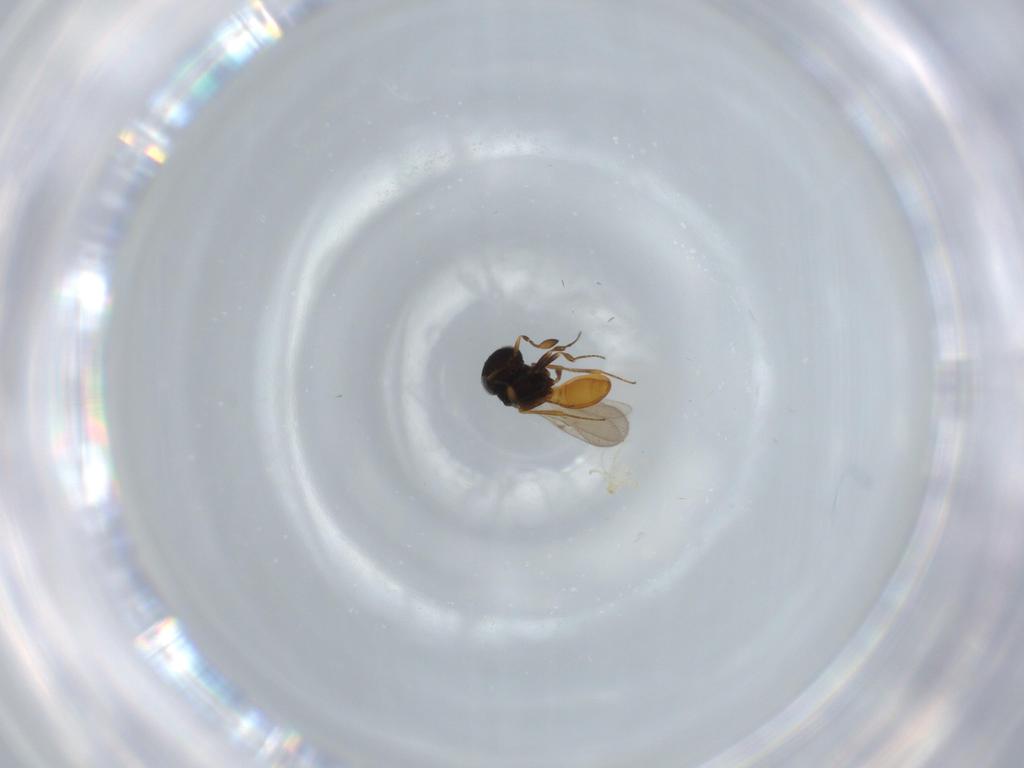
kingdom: Animalia
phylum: Arthropoda
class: Insecta
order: Hymenoptera
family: Scelionidae
